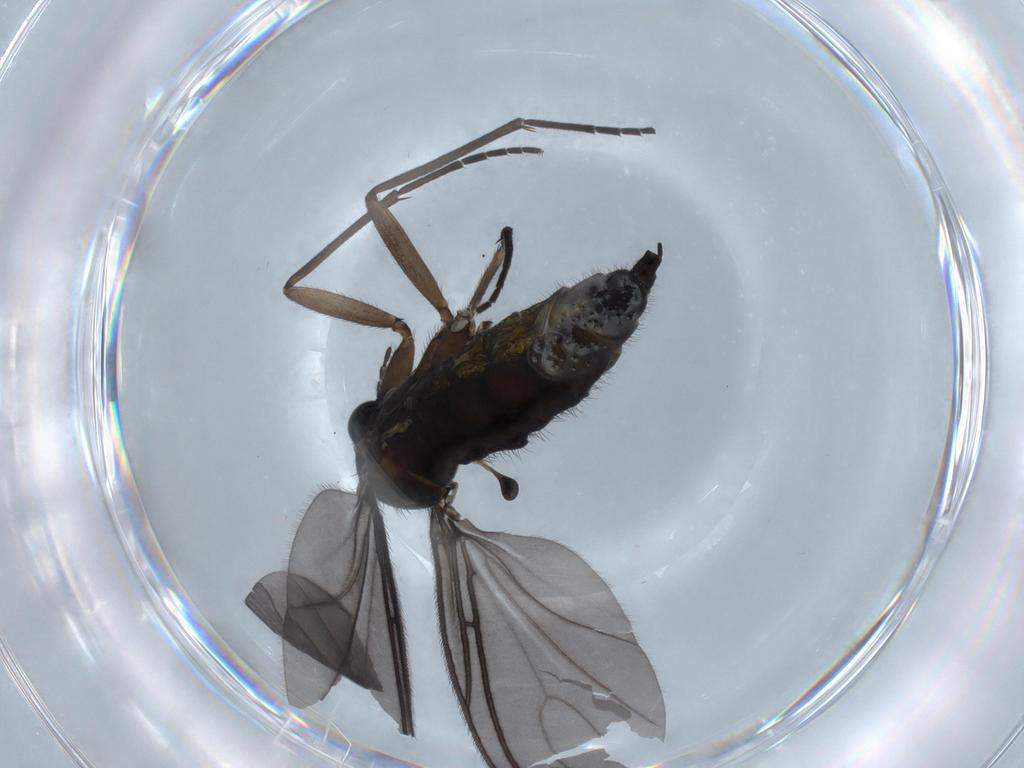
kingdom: Animalia
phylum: Arthropoda
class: Insecta
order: Diptera
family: Sciaridae
